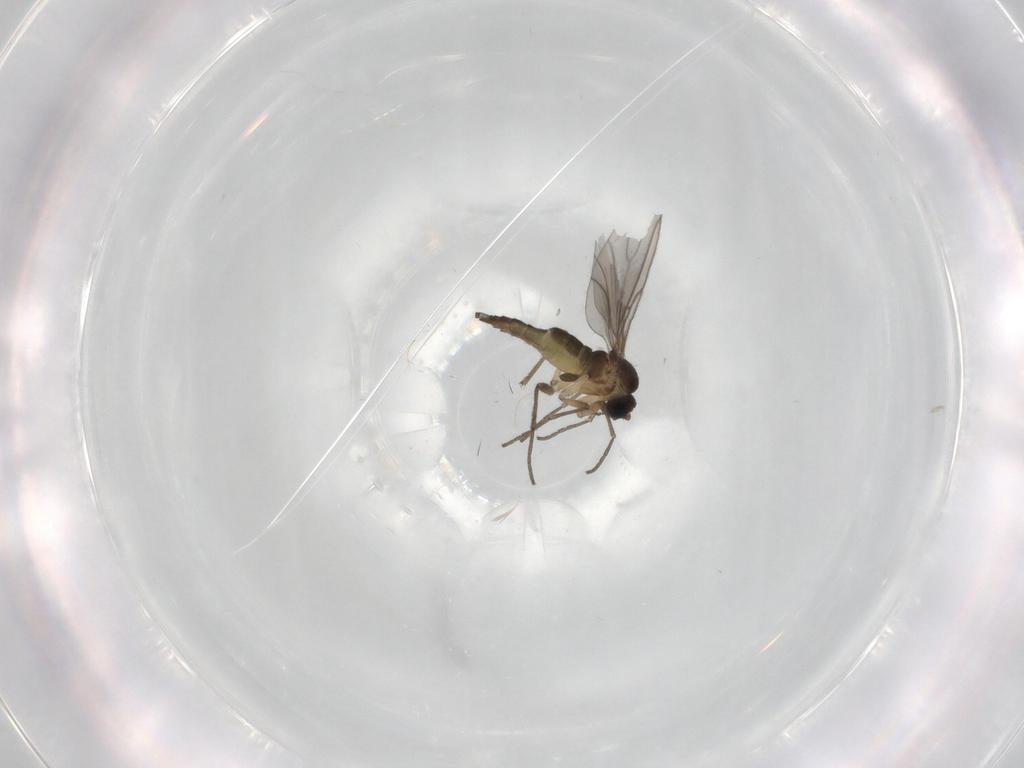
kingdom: Animalia
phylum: Arthropoda
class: Insecta
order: Diptera
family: Sciaridae
